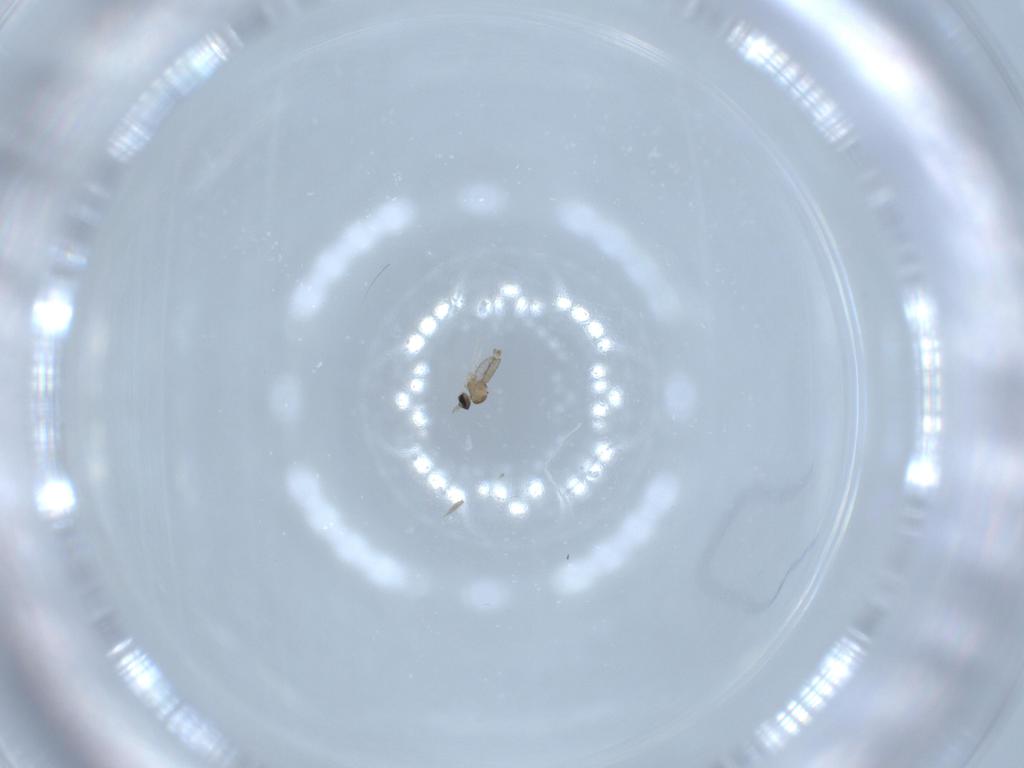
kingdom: Animalia
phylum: Arthropoda
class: Insecta
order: Diptera
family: Cecidomyiidae
